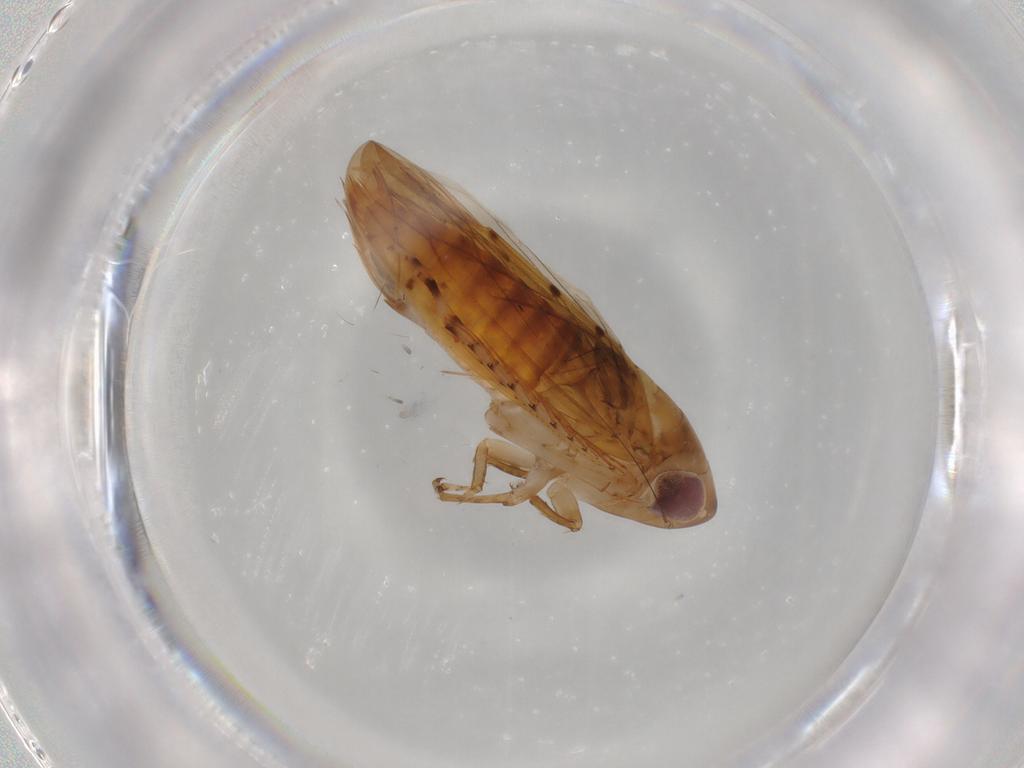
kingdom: Animalia
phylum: Arthropoda
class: Insecta
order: Hemiptera
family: Cicadellidae
